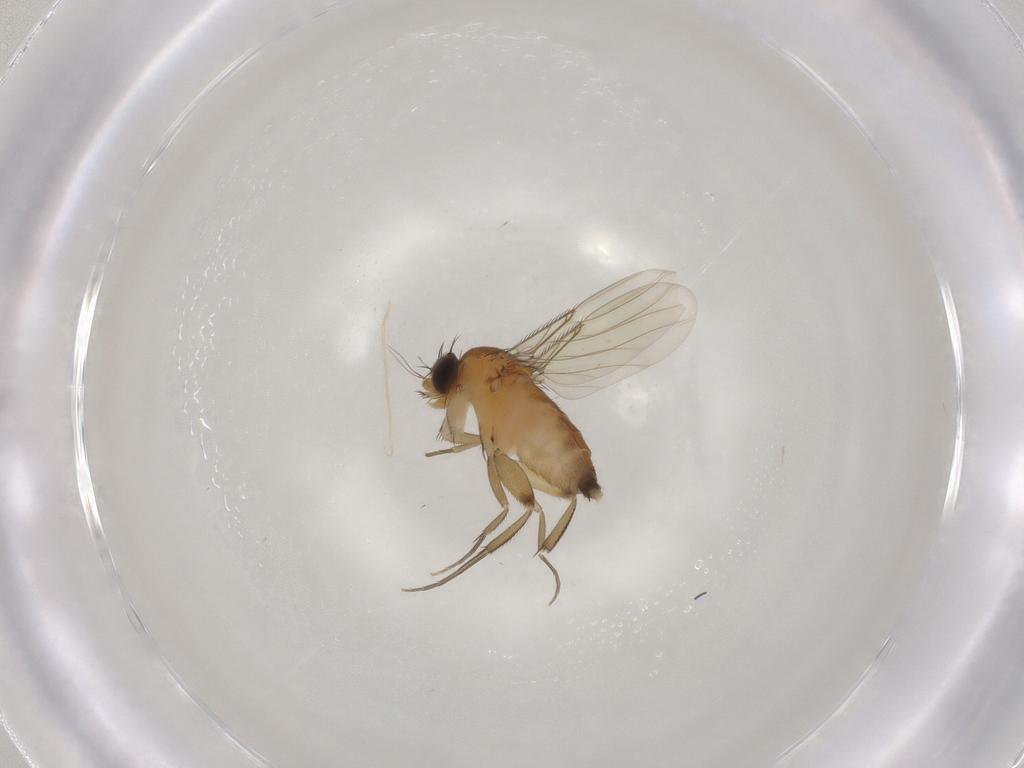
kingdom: Animalia
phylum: Arthropoda
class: Insecta
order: Diptera
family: Phoridae
